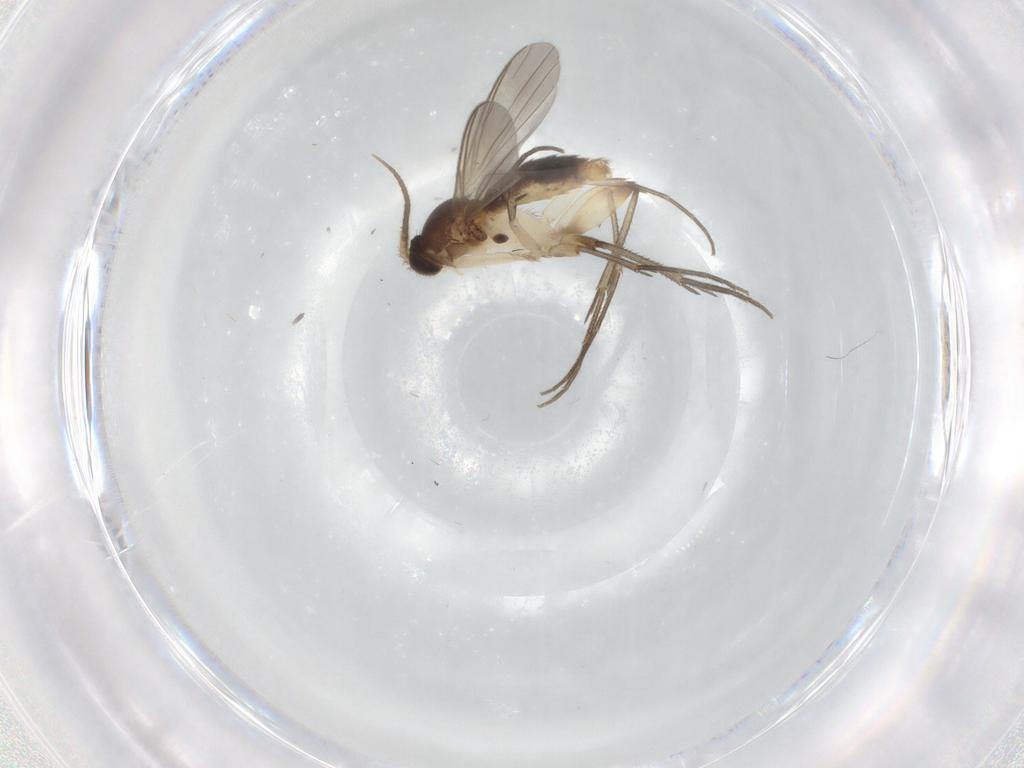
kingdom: Animalia
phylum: Arthropoda
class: Insecta
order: Diptera
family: Mycetophilidae
